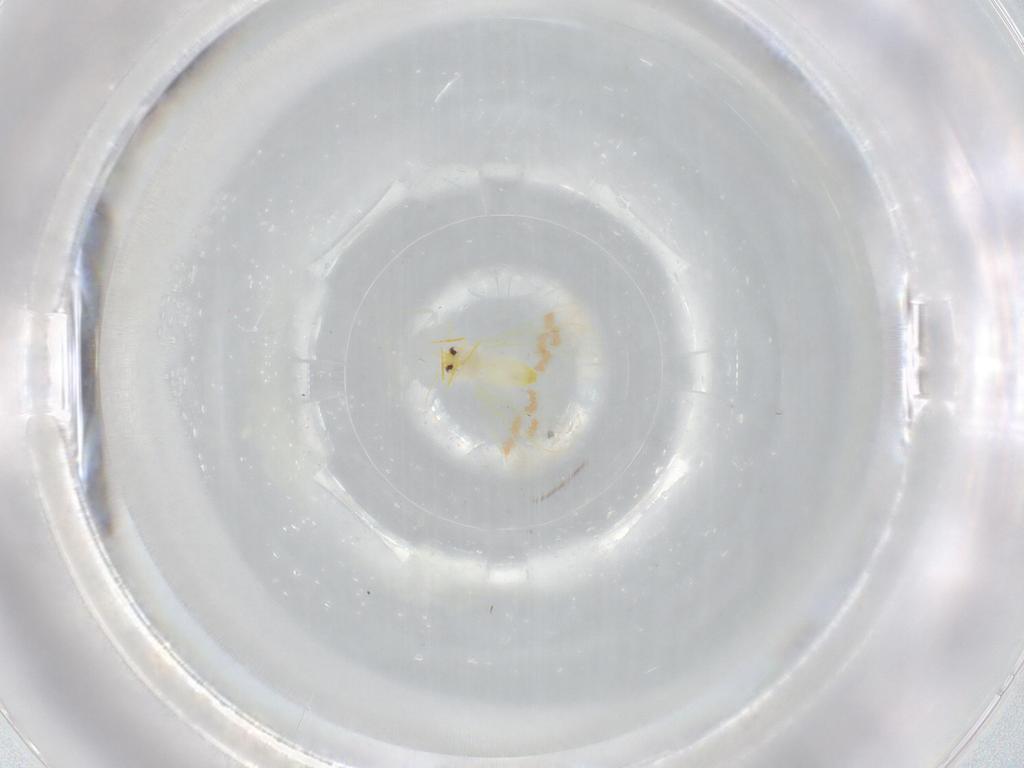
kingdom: Animalia
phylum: Arthropoda
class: Insecta
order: Hemiptera
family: Aleyrodidae
